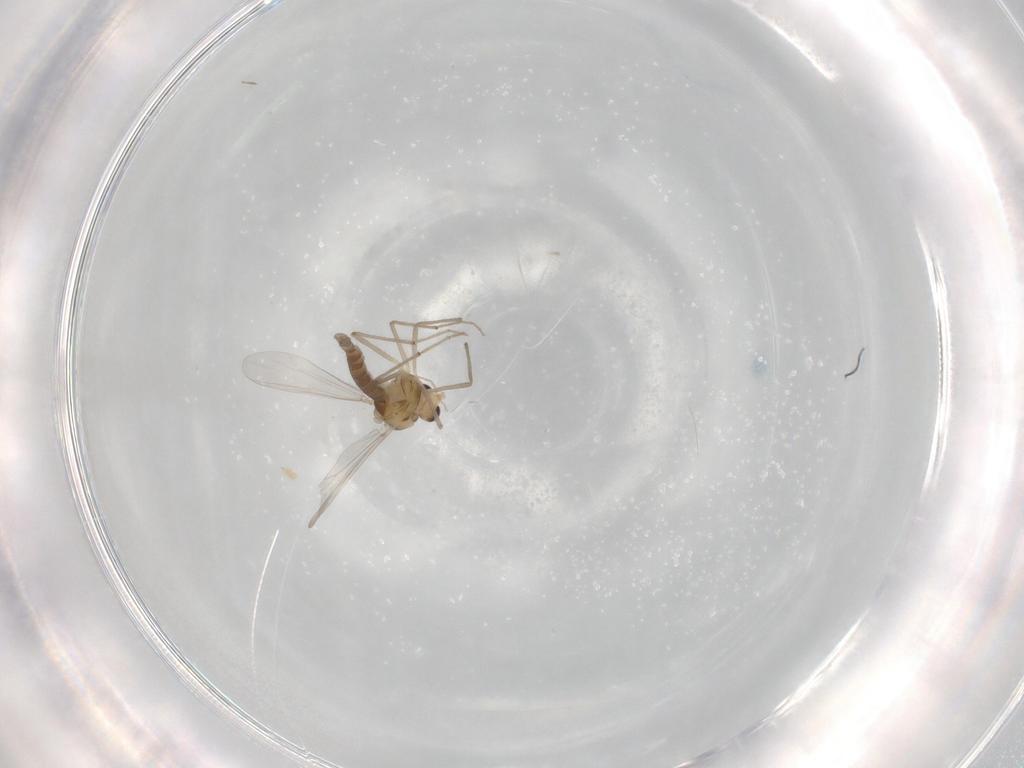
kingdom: Animalia
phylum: Arthropoda
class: Insecta
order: Diptera
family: Chironomidae
